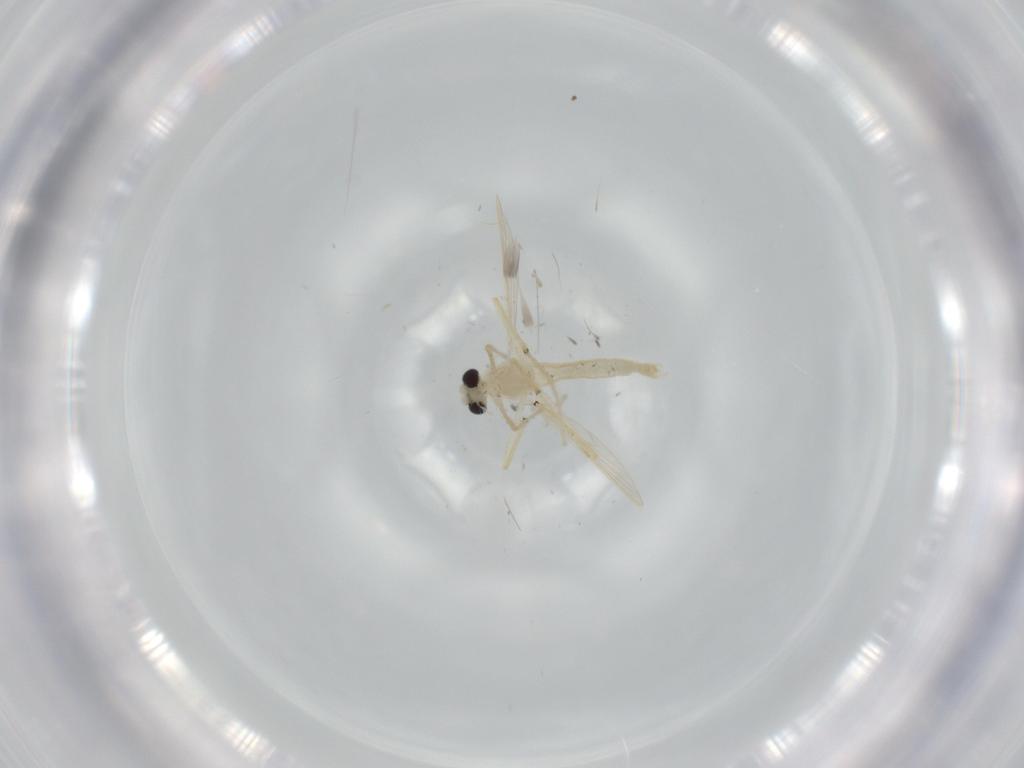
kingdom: Animalia
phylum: Arthropoda
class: Insecta
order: Diptera
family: Chironomidae
